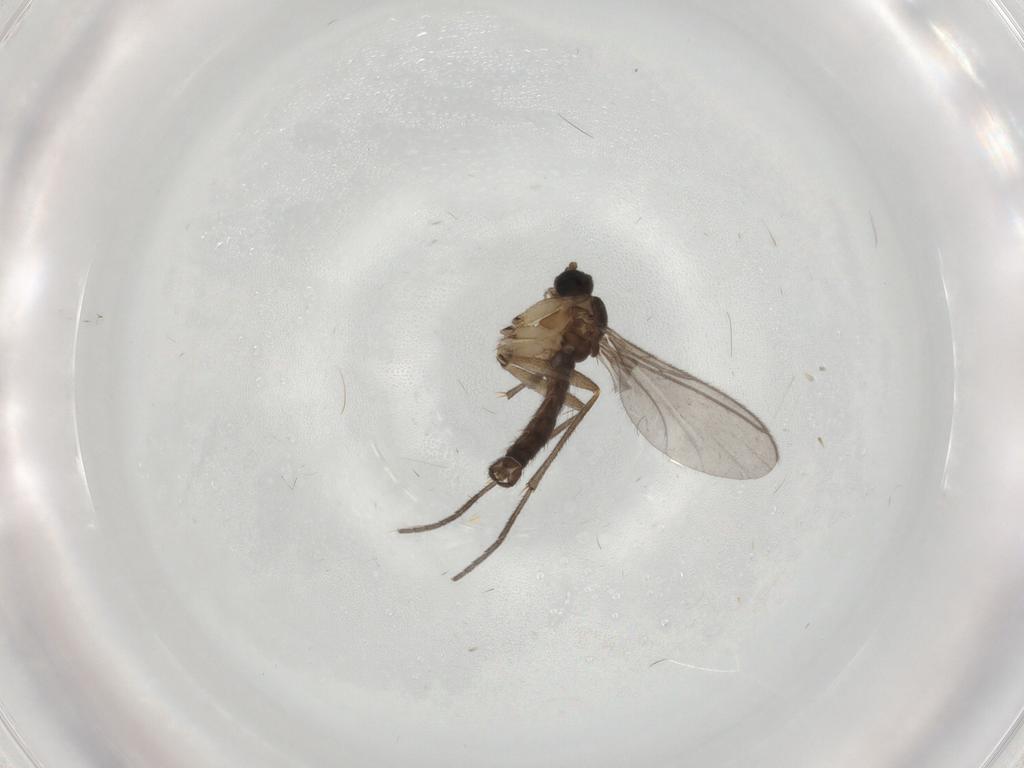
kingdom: Animalia
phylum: Arthropoda
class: Insecta
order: Diptera
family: Sciaridae
